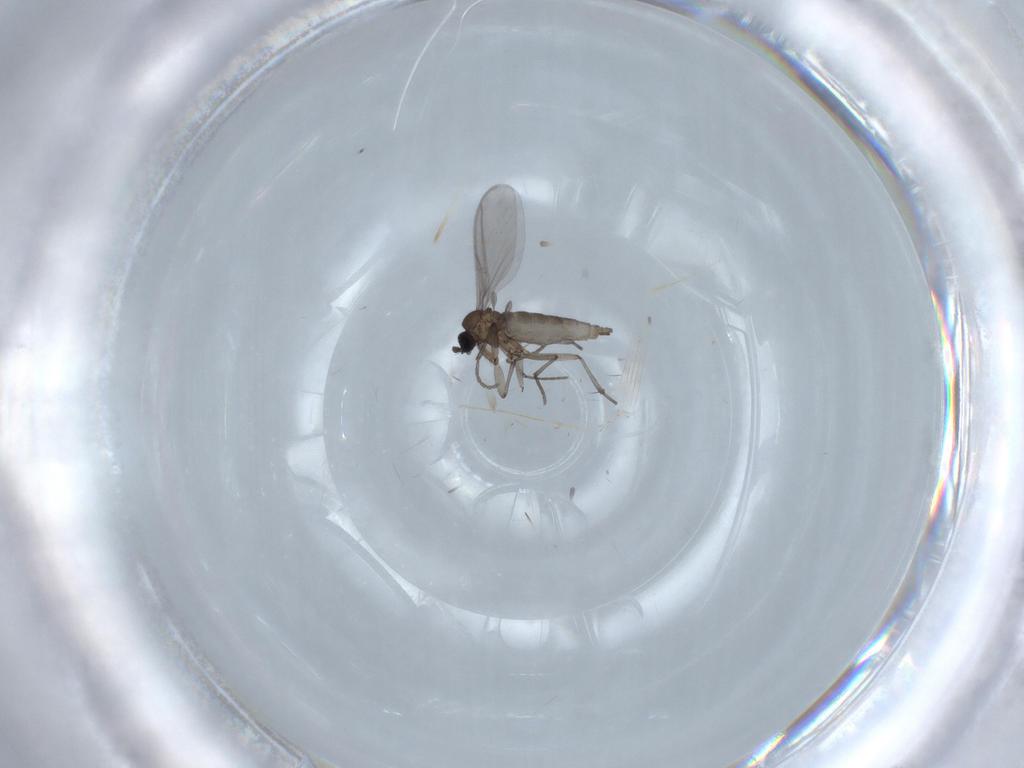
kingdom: Animalia
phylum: Arthropoda
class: Insecta
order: Diptera
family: Sciaridae
